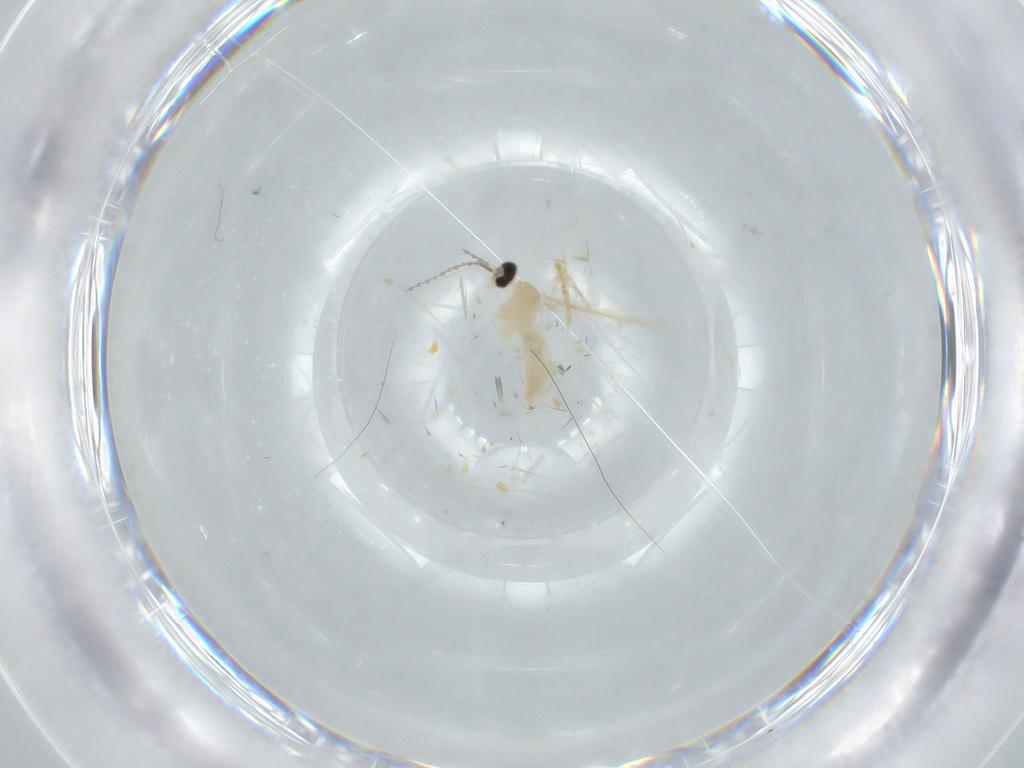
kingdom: Animalia
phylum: Arthropoda
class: Insecta
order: Diptera
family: Cecidomyiidae
